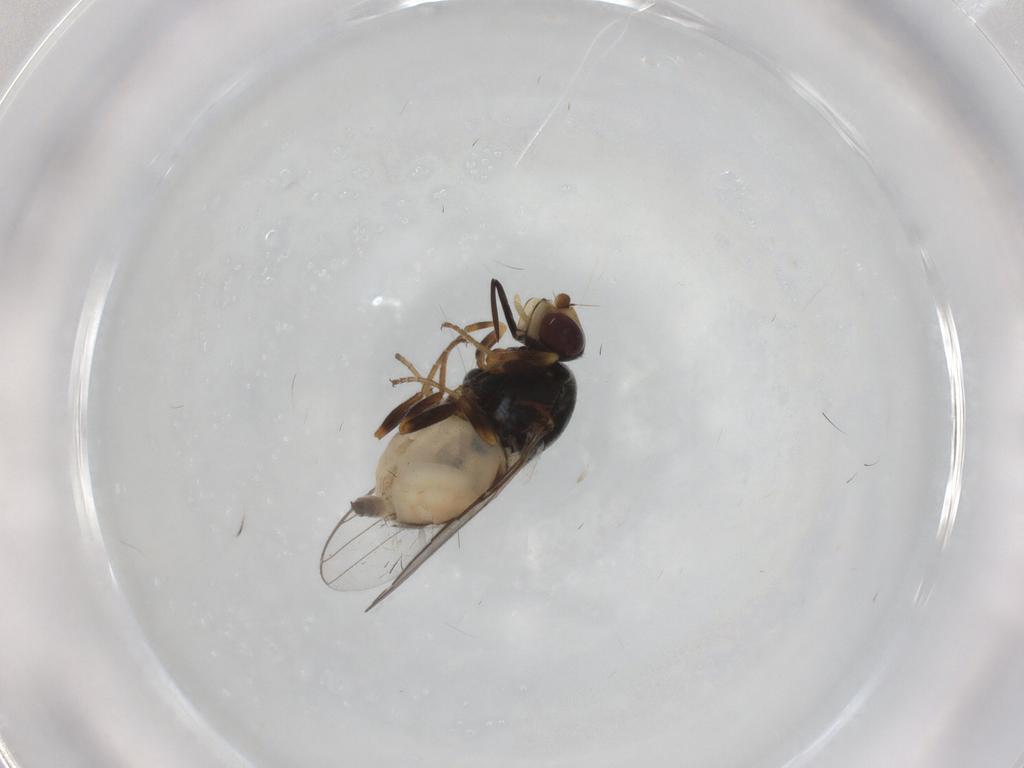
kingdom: Animalia
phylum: Arthropoda
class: Insecta
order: Diptera
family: Chloropidae
